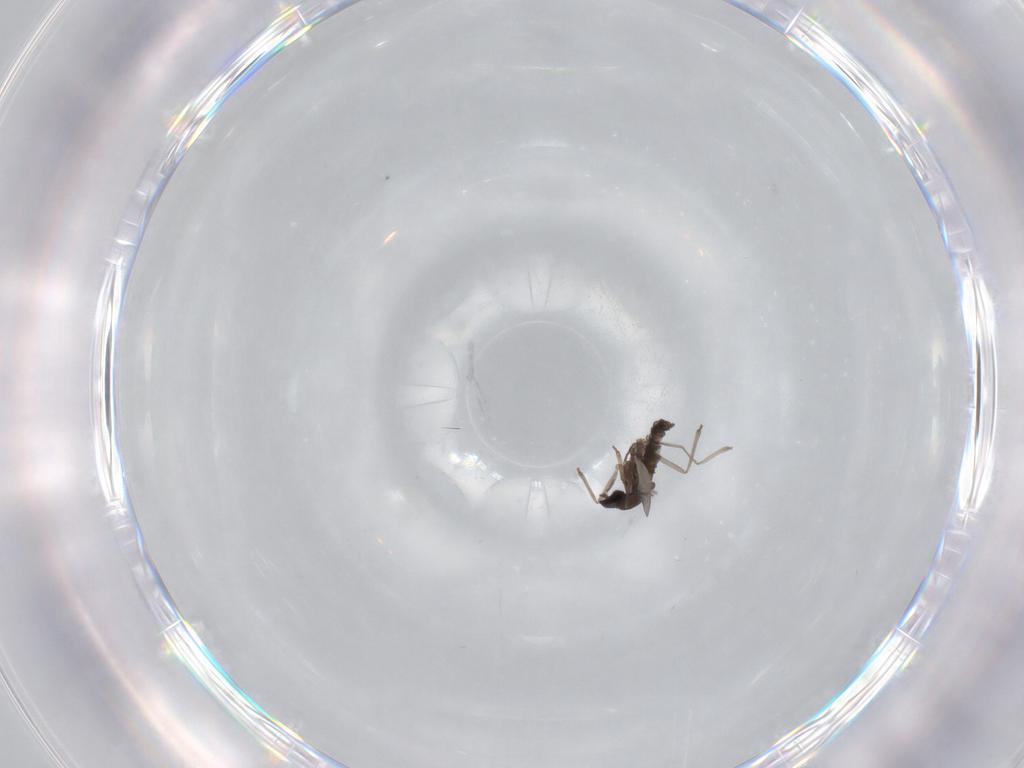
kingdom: Animalia
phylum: Arthropoda
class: Insecta
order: Diptera
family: Cecidomyiidae
